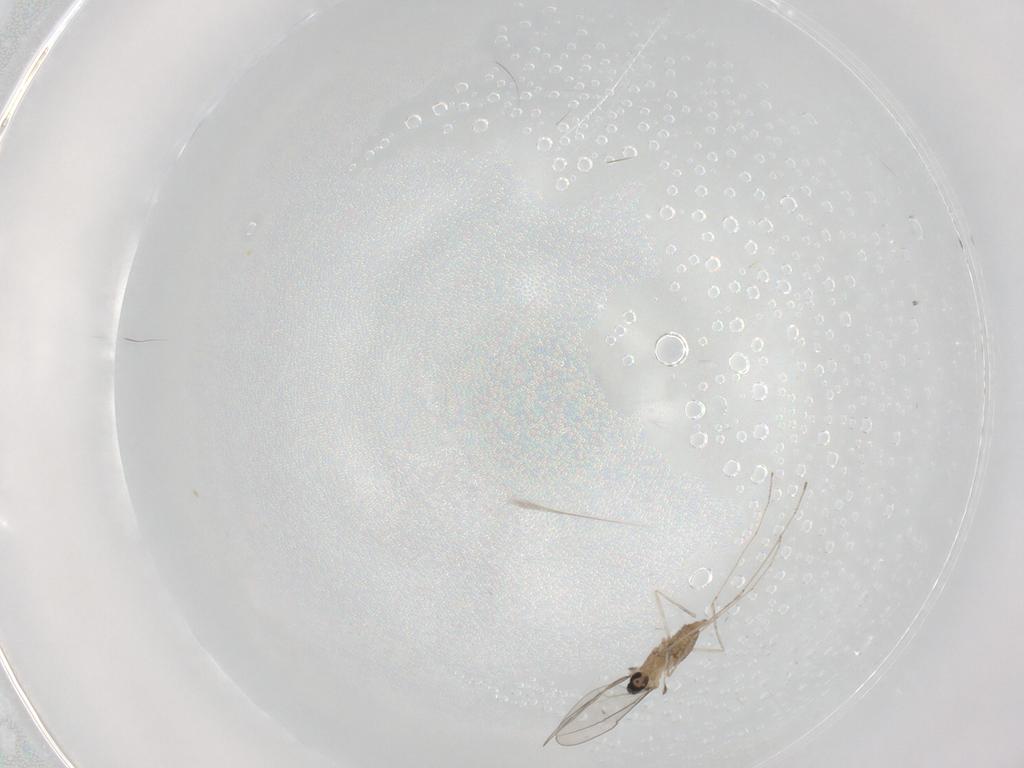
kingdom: Animalia
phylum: Arthropoda
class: Insecta
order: Diptera
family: Cecidomyiidae
